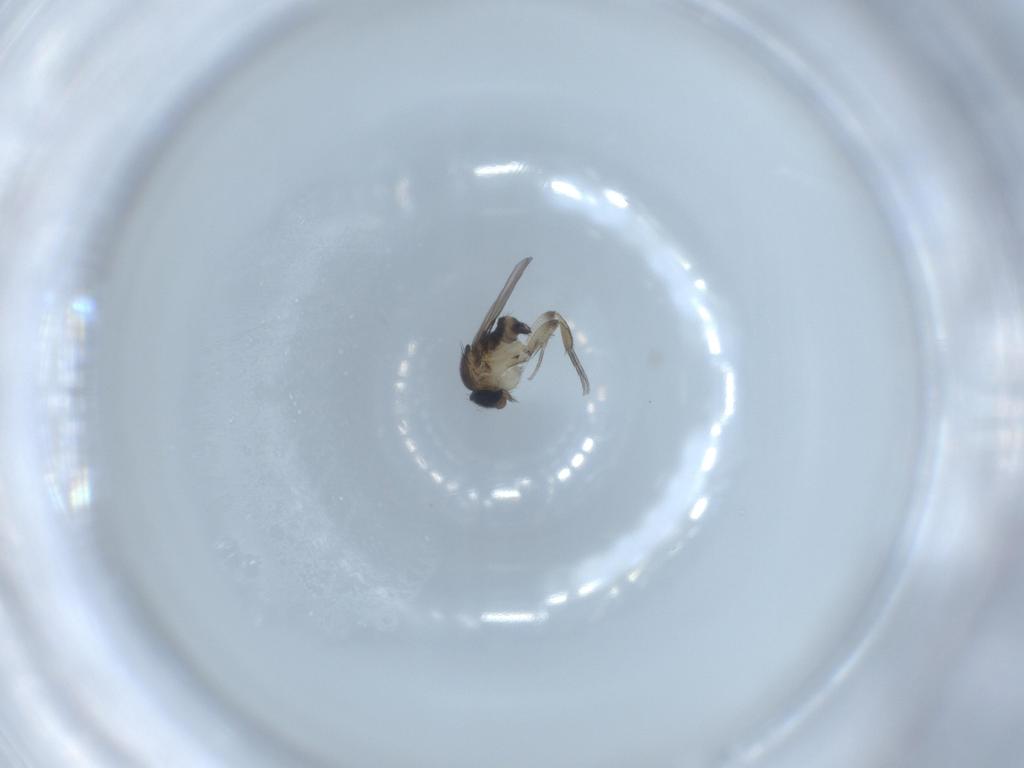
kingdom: Animalia
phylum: Arthropoda
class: Insecta
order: Diptera
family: Phoridae
